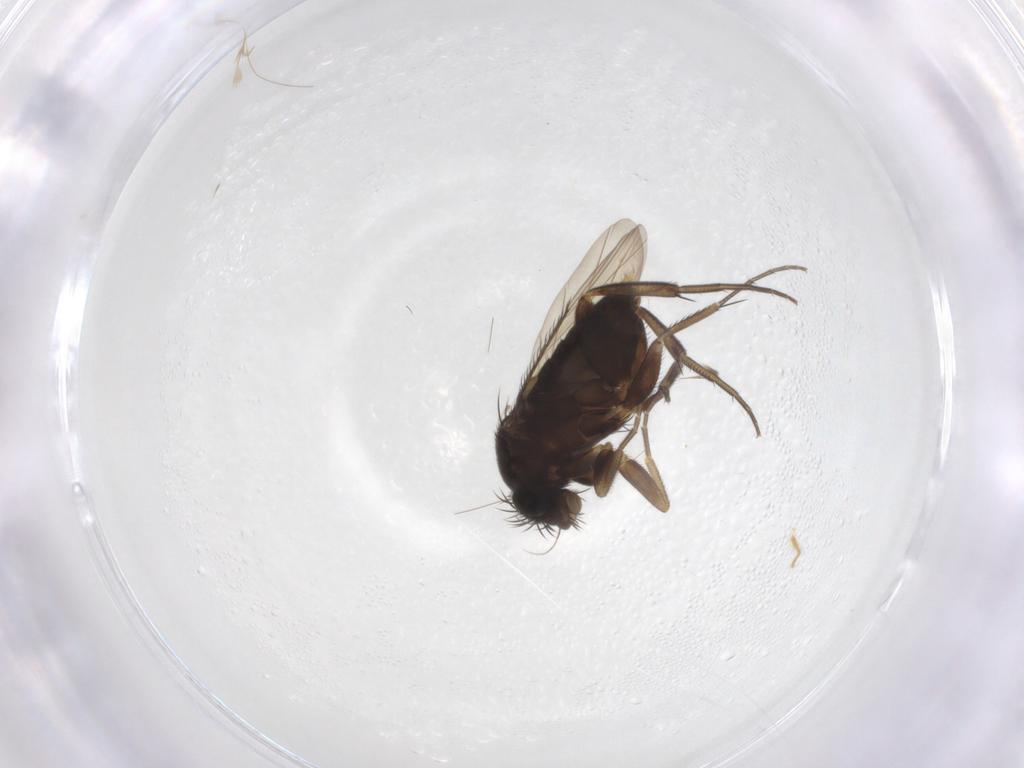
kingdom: Animalia
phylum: Arthropoda
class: Insecta
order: Diptera
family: Phoridae
